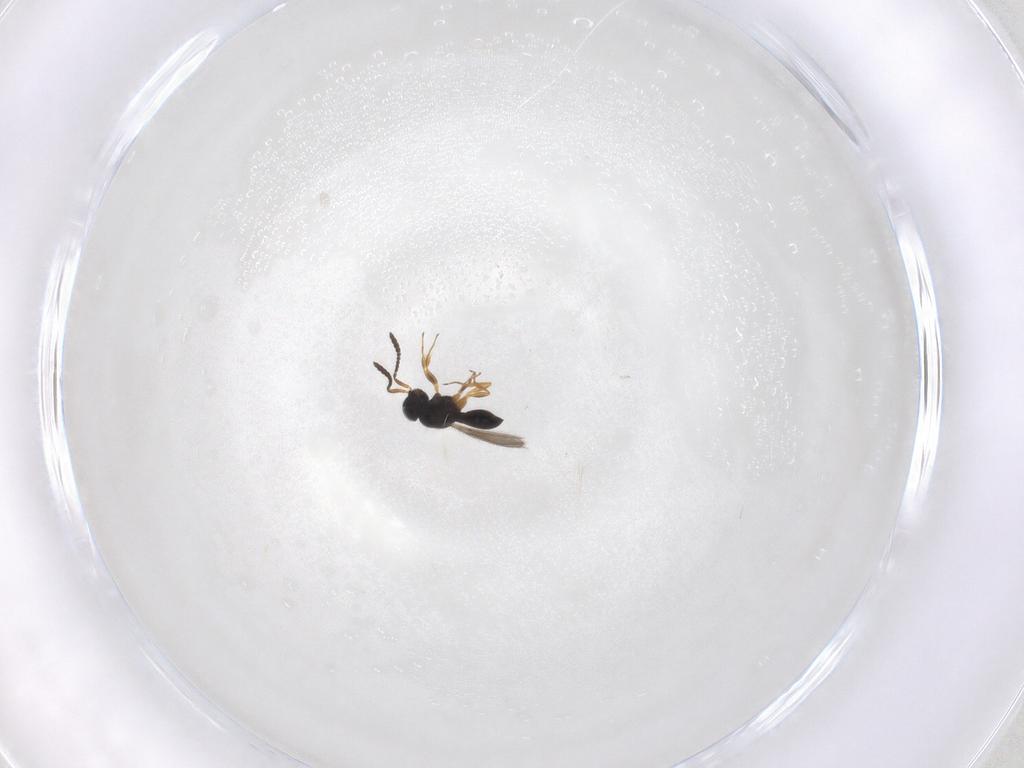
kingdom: Animalia
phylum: Arthropoda
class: Insecta
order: Hymenoptera
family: Scelionidae
